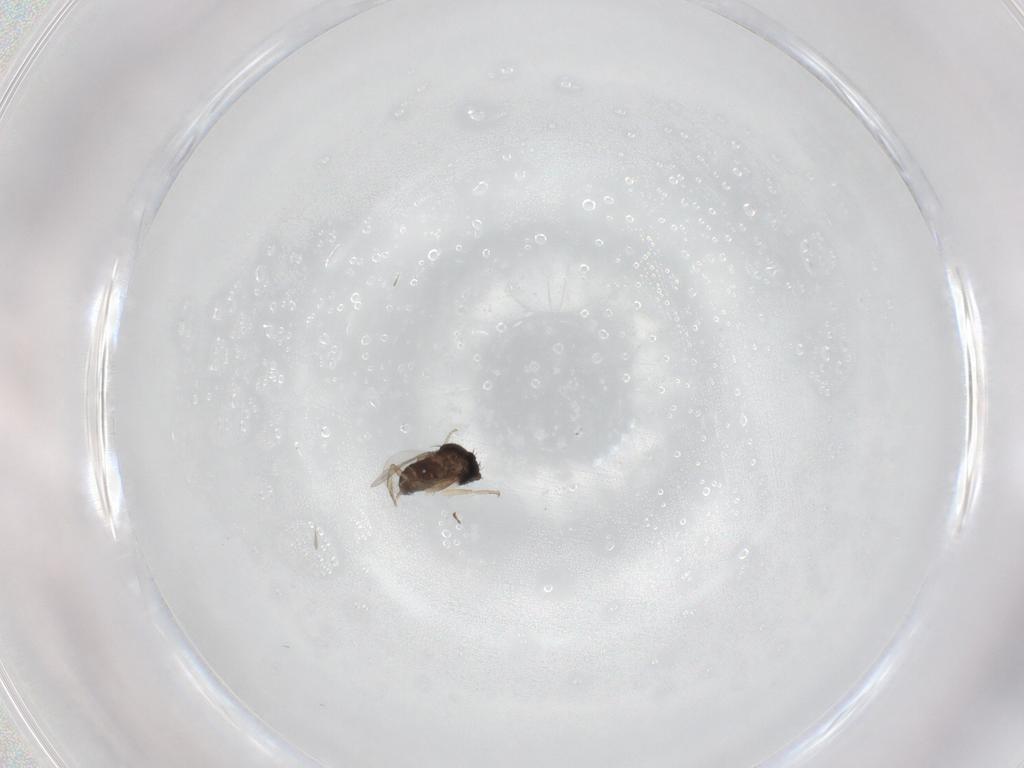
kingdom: Animalia
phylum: Arthropoda
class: Insecta
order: Diptera
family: Phoridae
